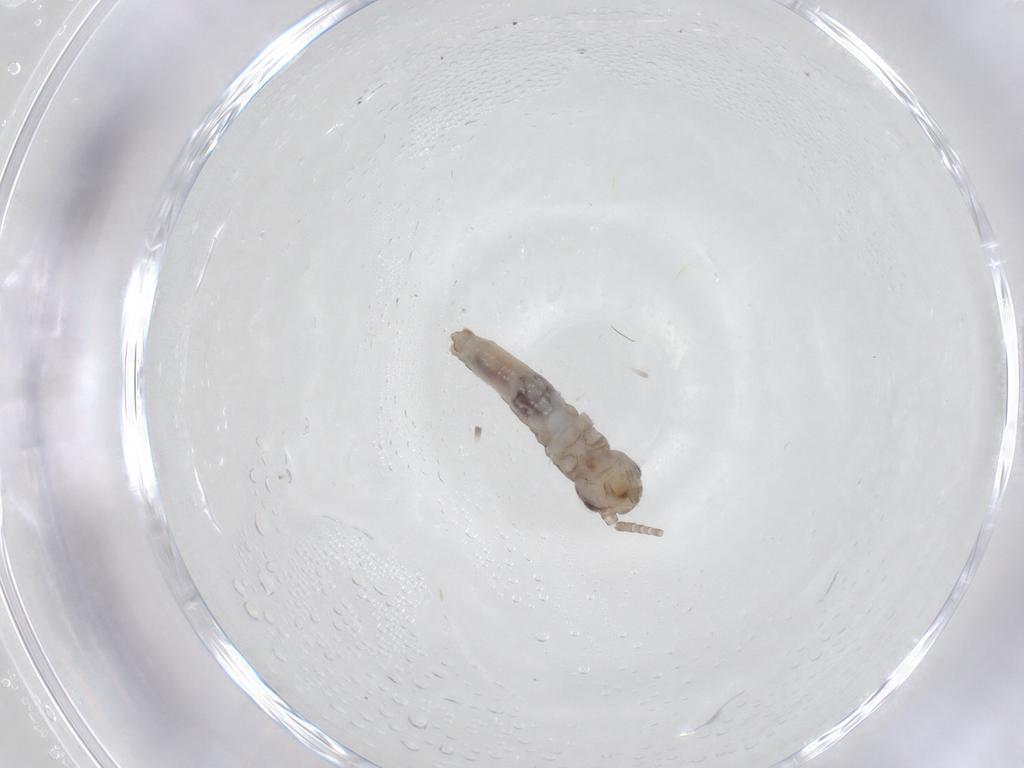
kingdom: Animalia
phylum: Arthropoda
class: Insecta
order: Orthoptera
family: Gryllidae
